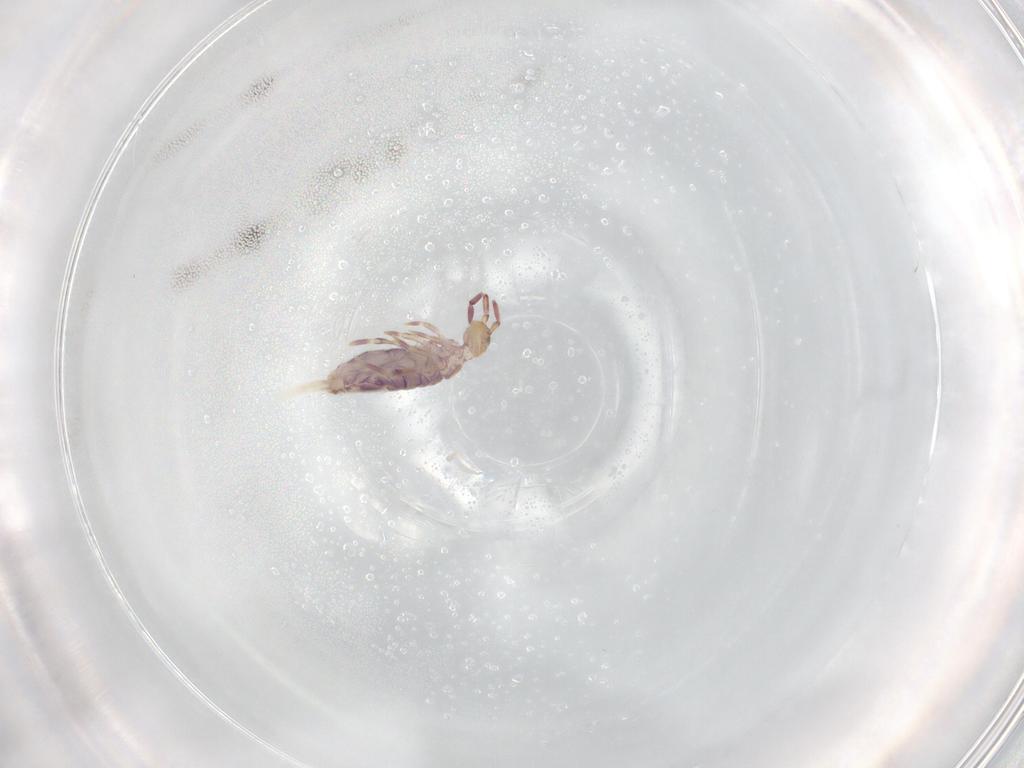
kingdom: Animalia
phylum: Arthropoda
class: Collembola
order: Entomobryomorpha
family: Entomobryidae
